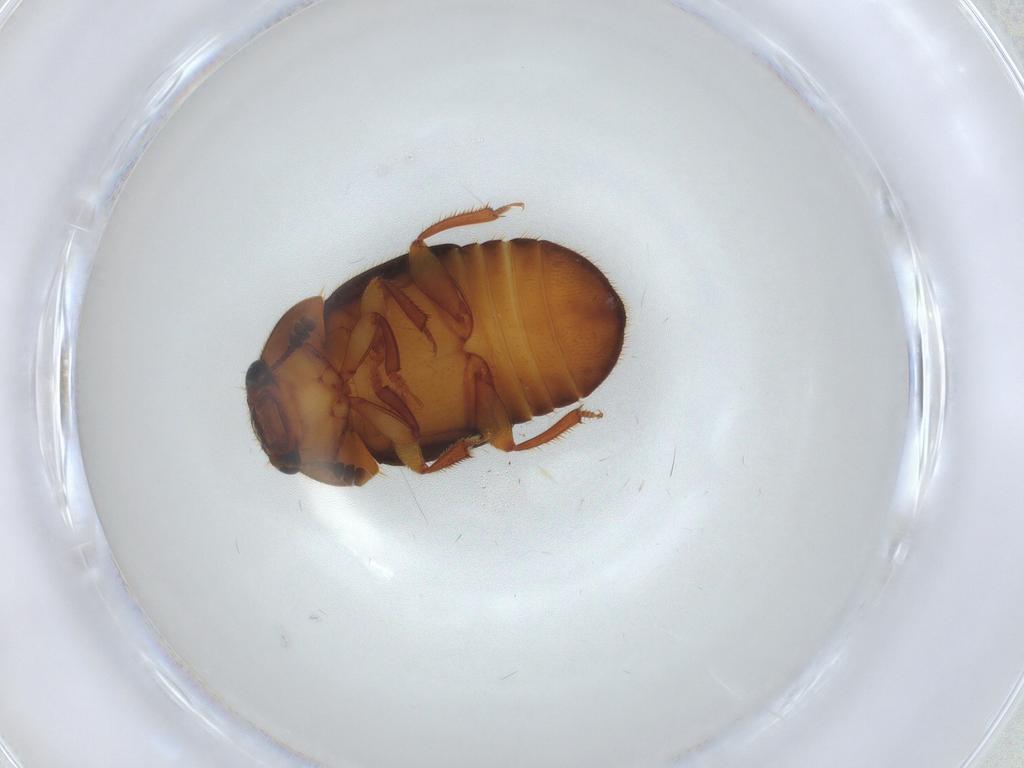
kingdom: Animalia
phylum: Arthropoda
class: Insecta
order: Coleoptera
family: Nitidulidae
